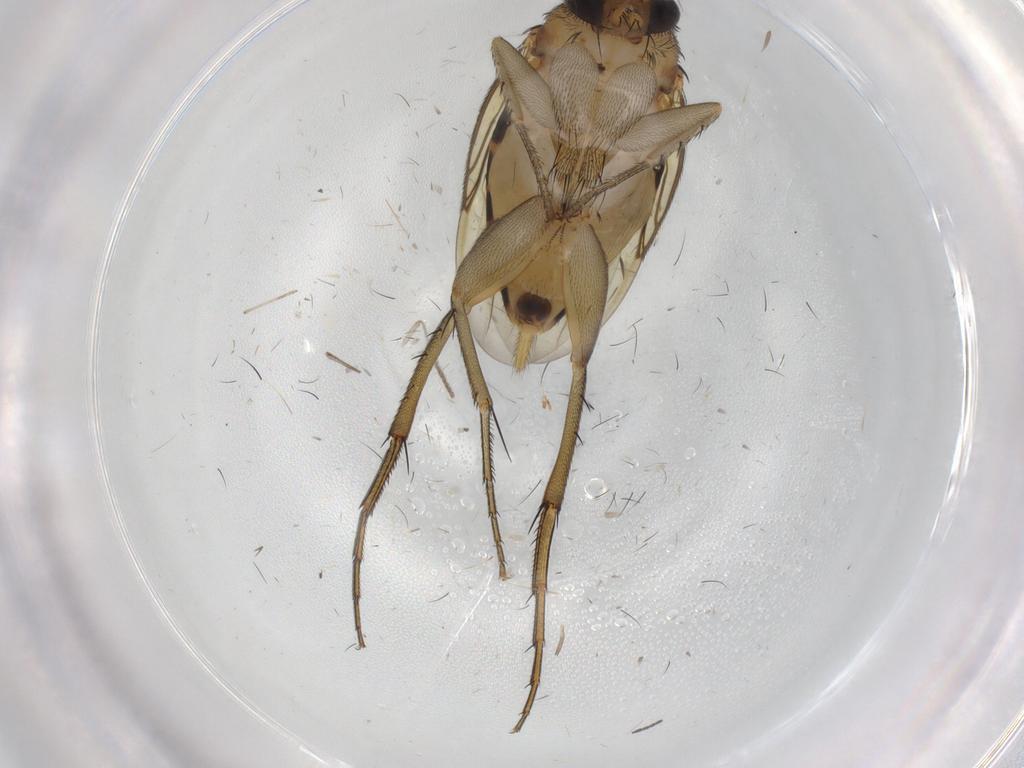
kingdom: Animalia
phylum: Arthropoda
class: Insecta
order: Diptera
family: Phoridae
